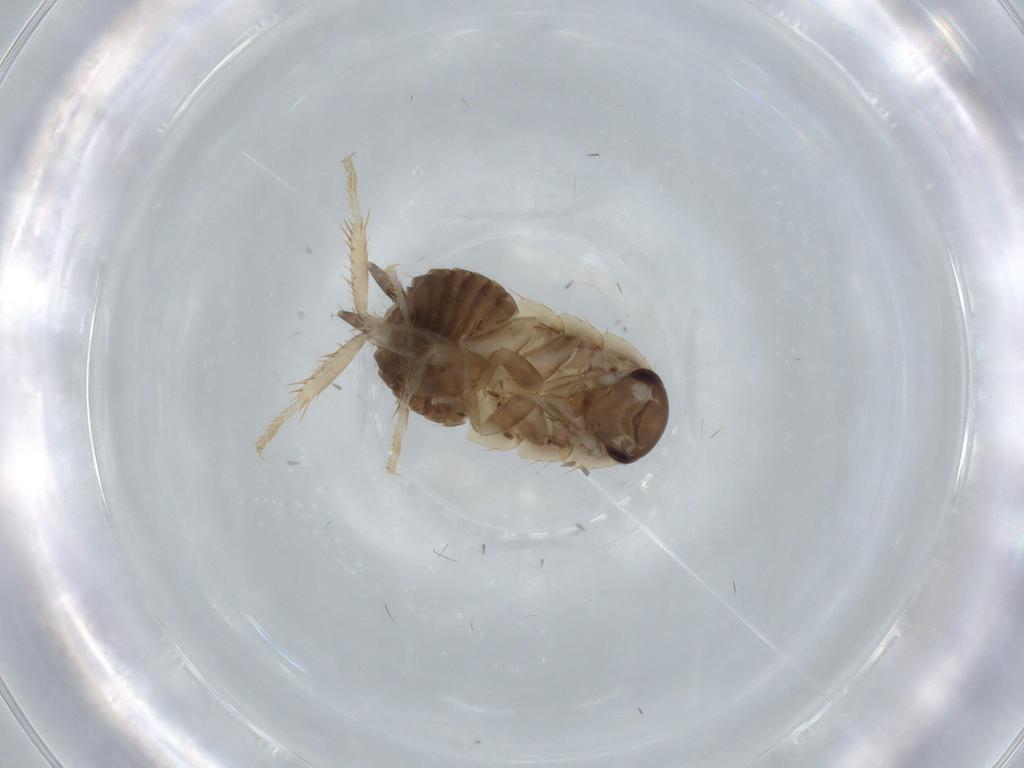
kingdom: Animalia
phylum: Arthropoda
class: Insecta
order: Blattodea
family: Ectobiidae
